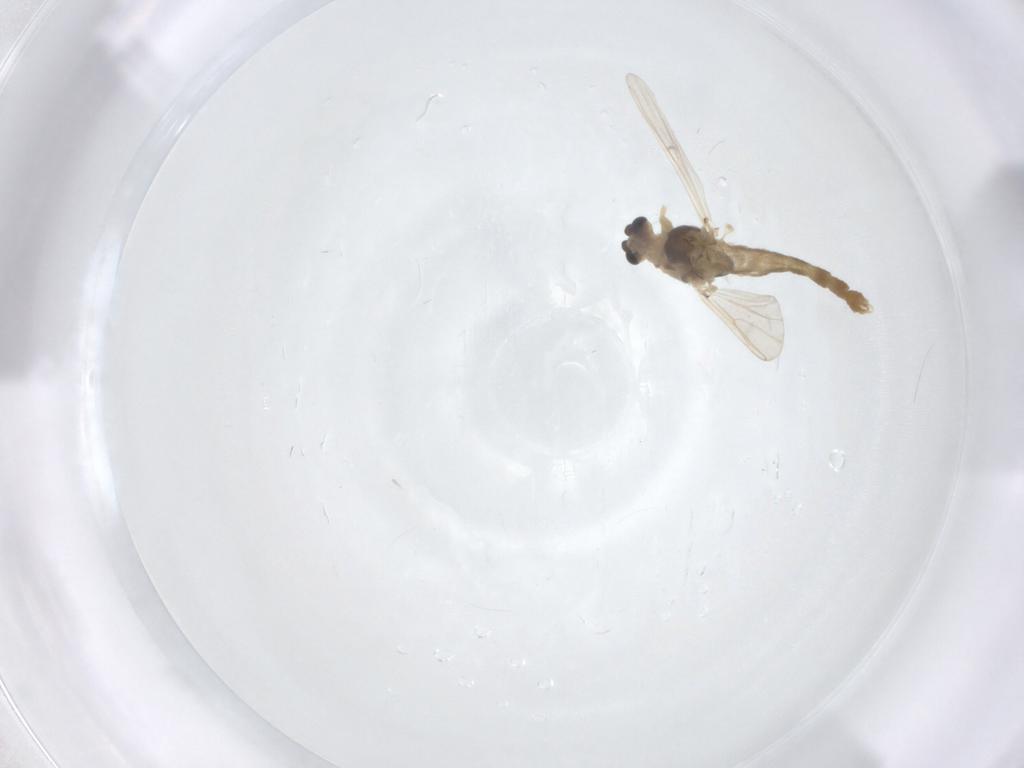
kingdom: Animalia
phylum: Arthropoda
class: Insecta
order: Diptera
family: Chironomidae
